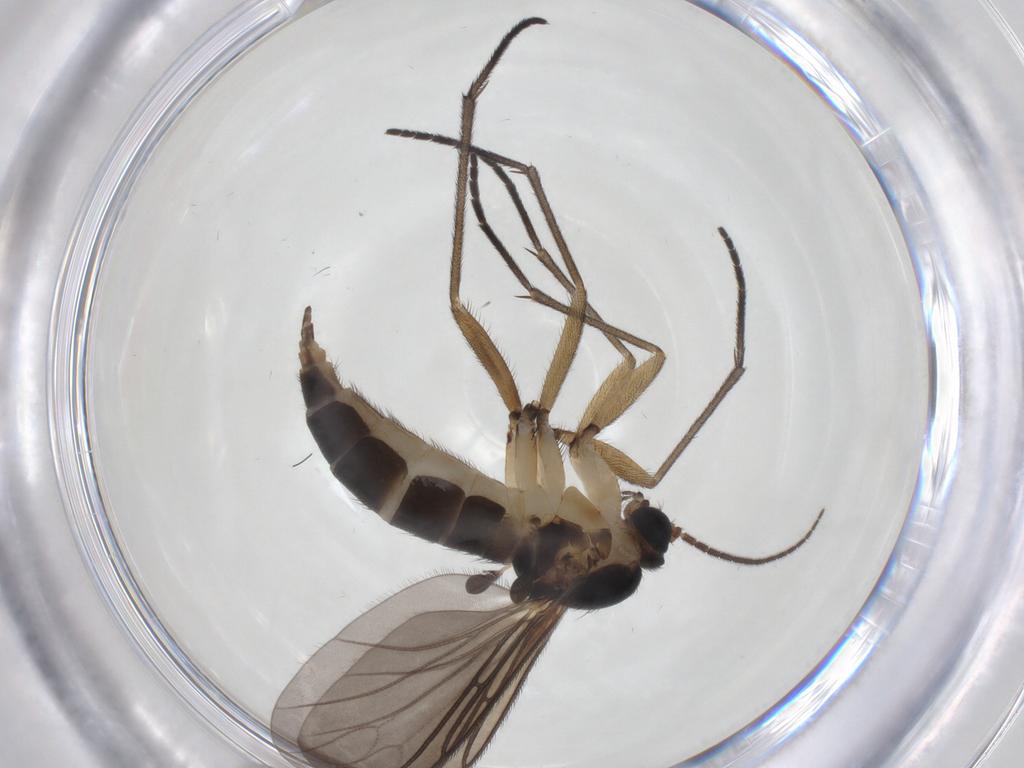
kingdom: Animalia
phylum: Arthropoda
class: Insecta
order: Diptera
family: Sciaridae
